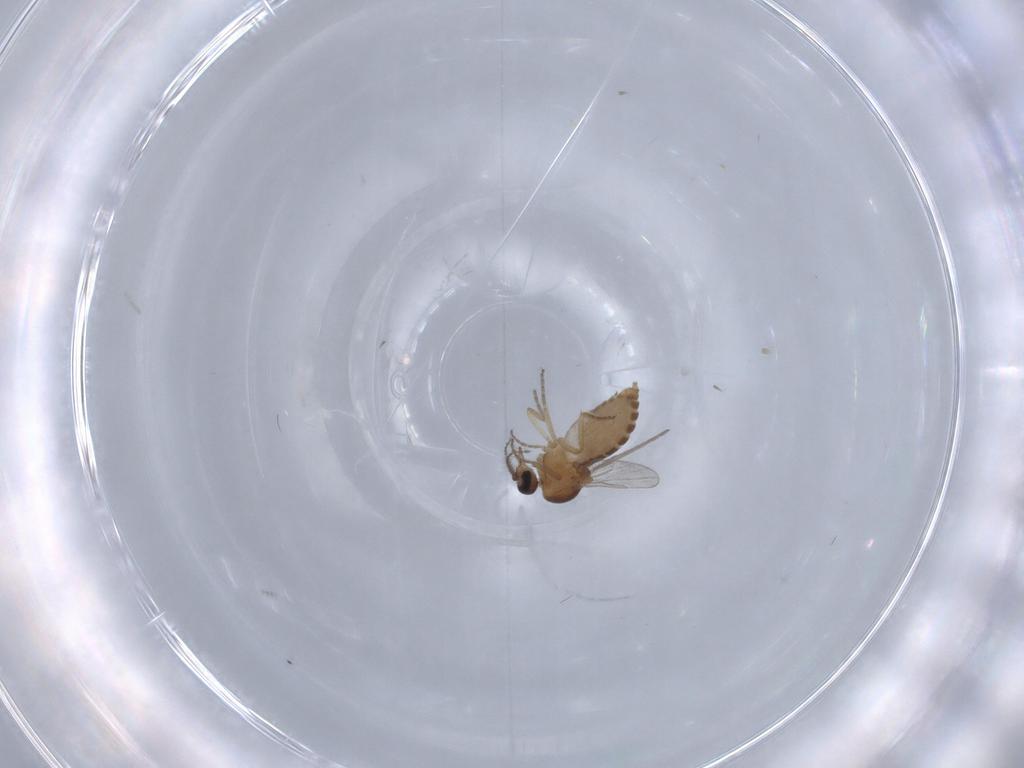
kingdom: Animalia
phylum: Arthropoda
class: Insecta
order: Diptera
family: Ceratopogonidae
